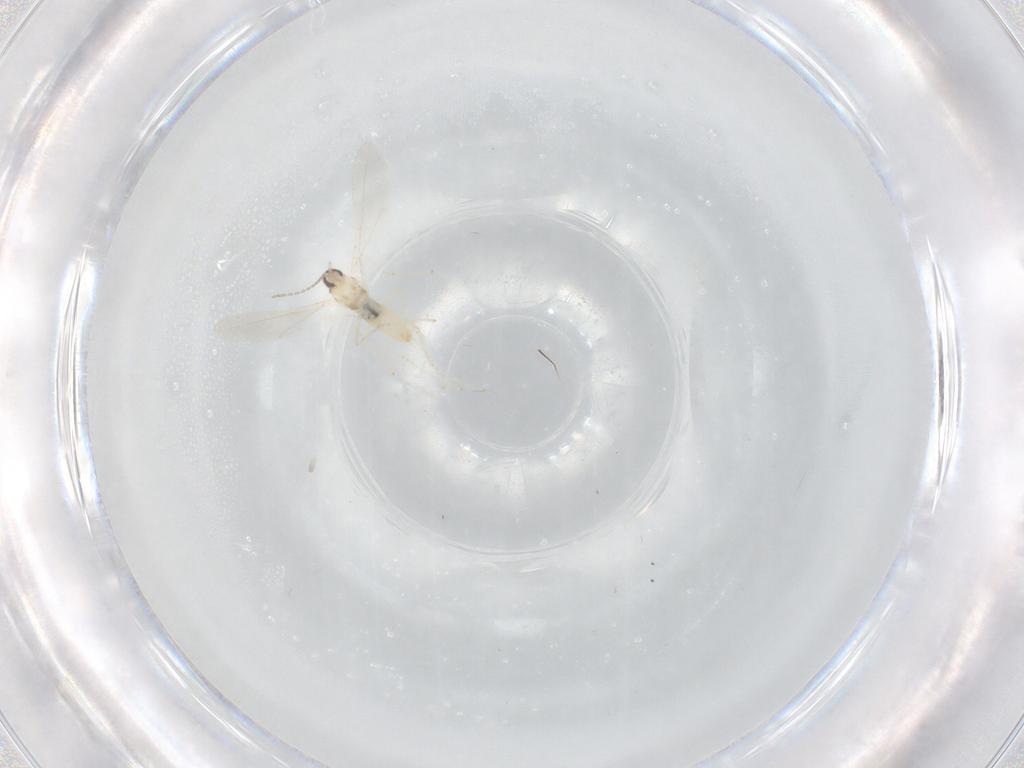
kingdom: Animalia
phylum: Arthropoda
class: Insecta
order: Diptera
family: Cecidomyiidae
